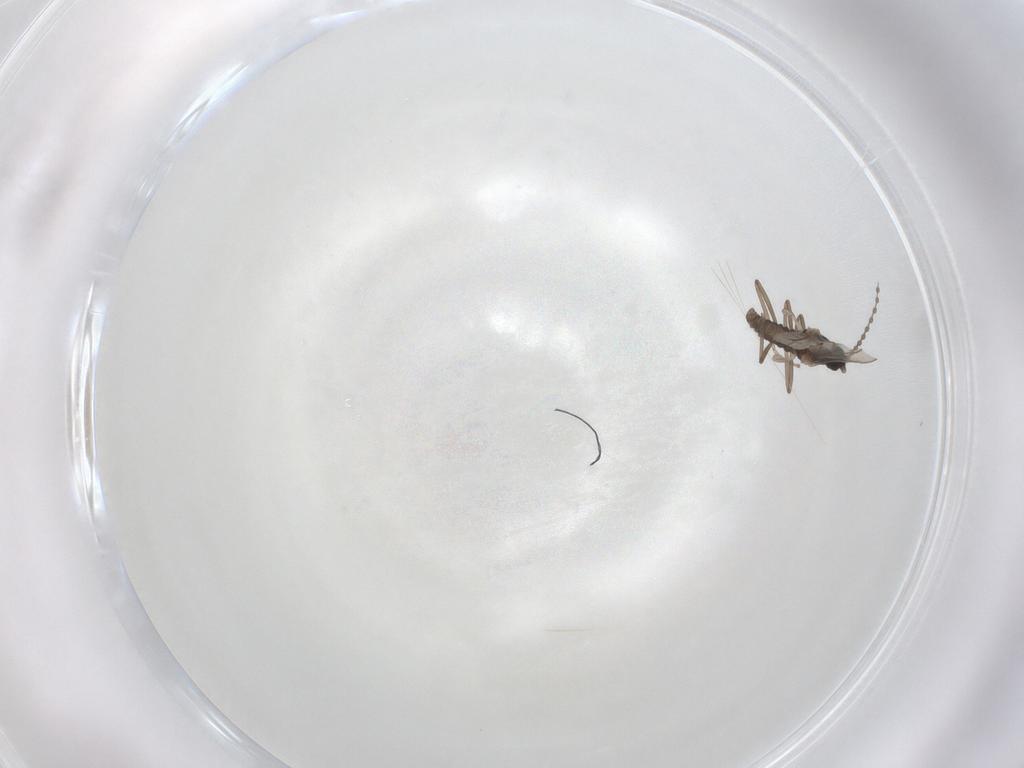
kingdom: Animalia
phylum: Arthropoda
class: Insecta
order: Diptera
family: Cecidomyiidae
